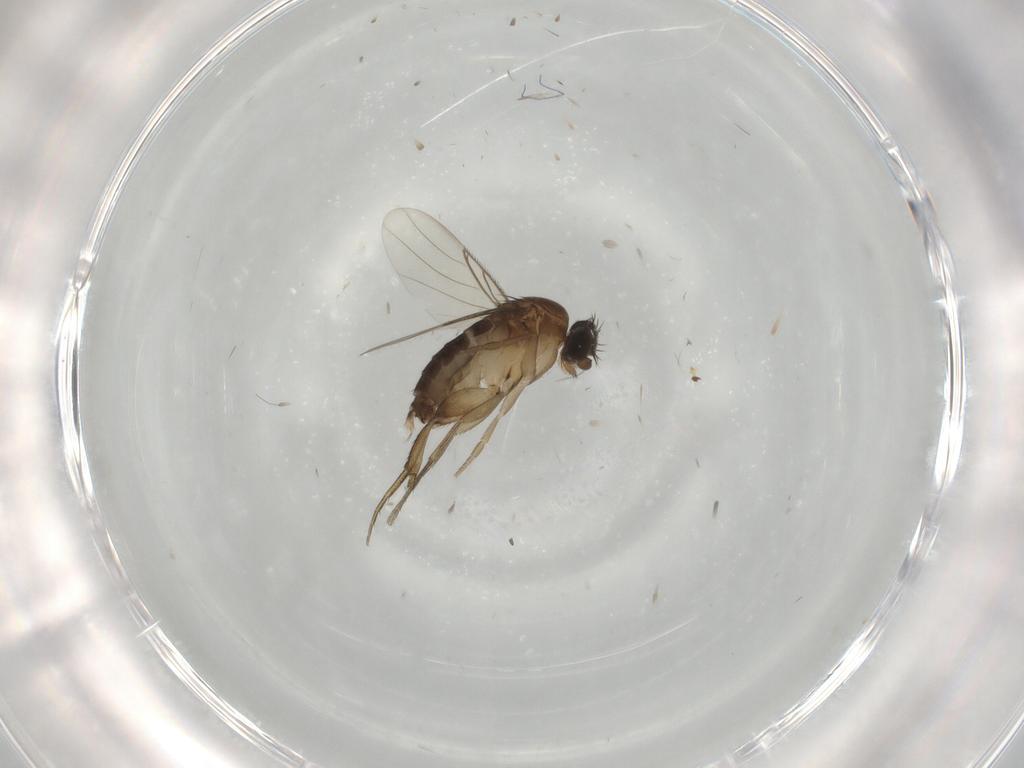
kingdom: Animalia
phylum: Arthropoda
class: Insecta
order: Diptera
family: Phoridae
